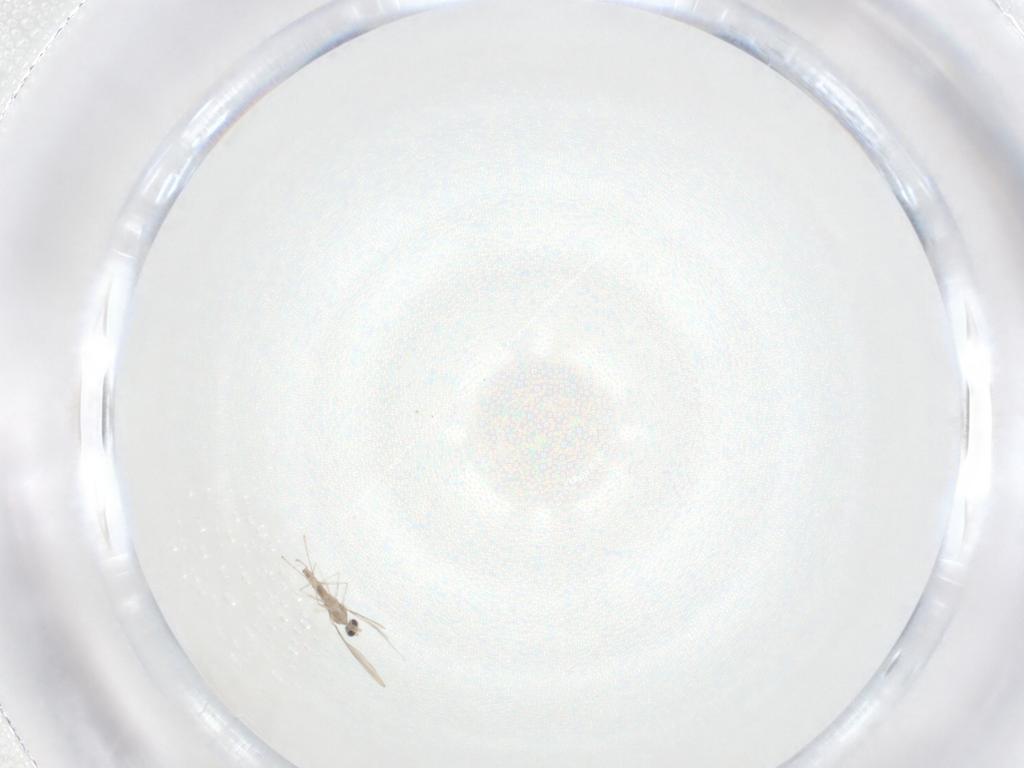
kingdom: Animalia
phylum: Arthropoda
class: Insecta
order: Diptera
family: Cecidomyiidae
